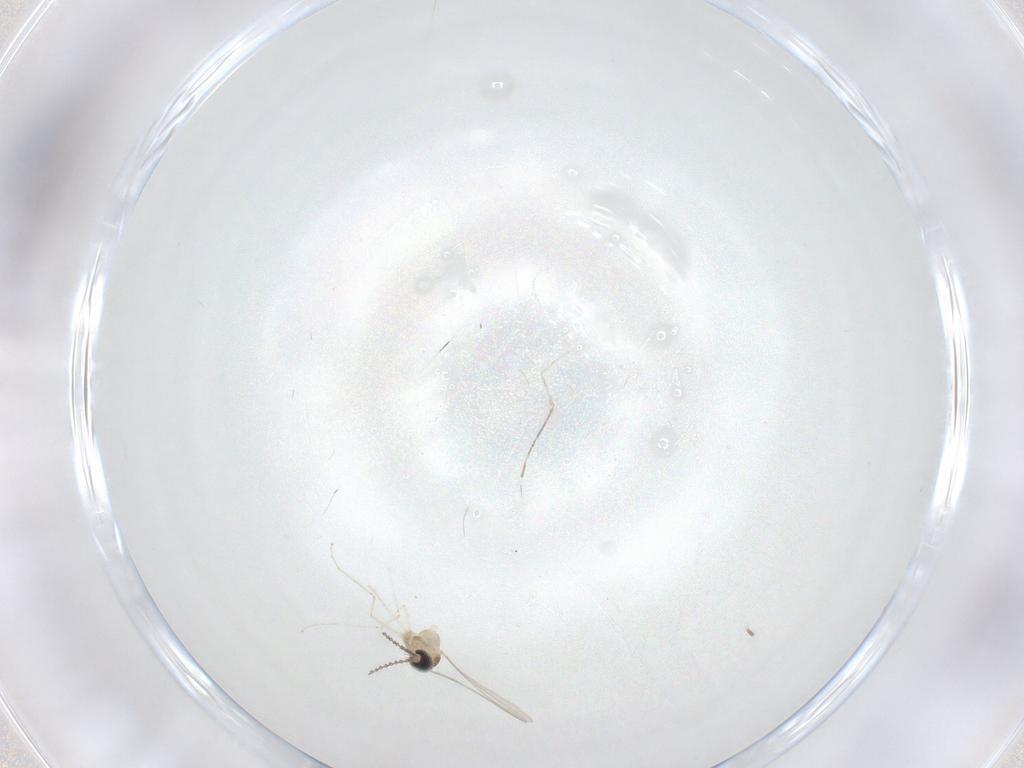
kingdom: Animalia
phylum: Arthropoda
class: Insecta
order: Diptera
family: Cecidomyiidae
